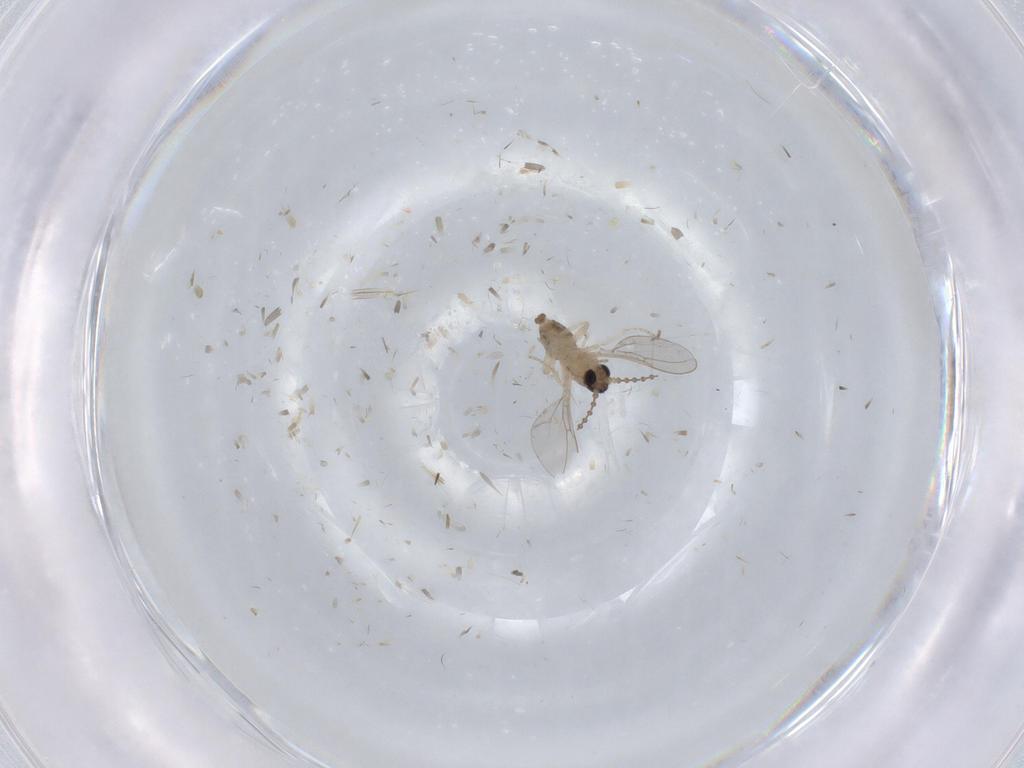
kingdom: Animalia
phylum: Arthropoda
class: Insecta
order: Diptera
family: Cecidomyiidae
